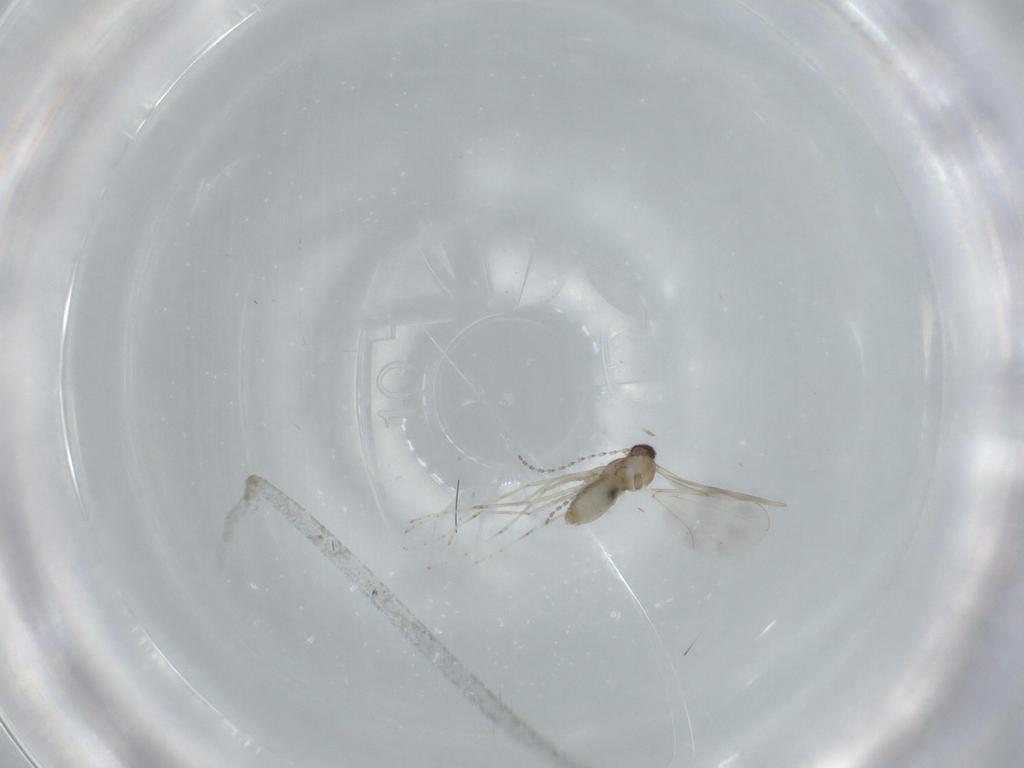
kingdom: Animalia
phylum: Arthropoda
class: Insecta
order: Diptera
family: Cecidomyiidae
